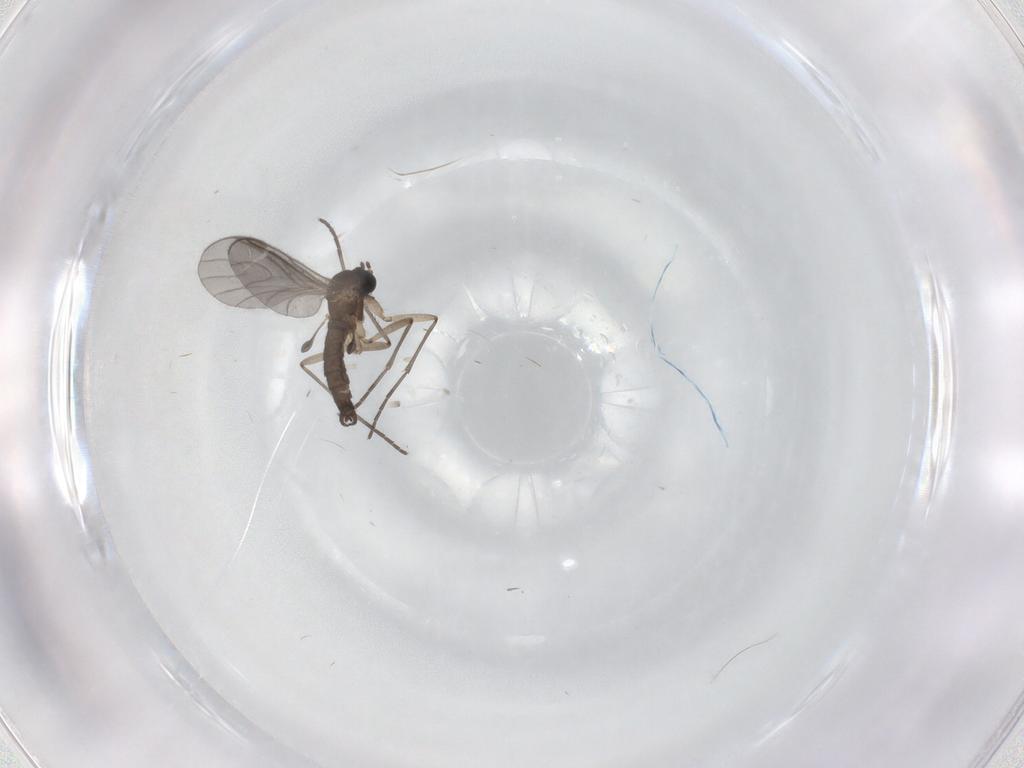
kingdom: Animalia
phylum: Arthropoda
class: Insecta
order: Diptera
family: Sciaridae
